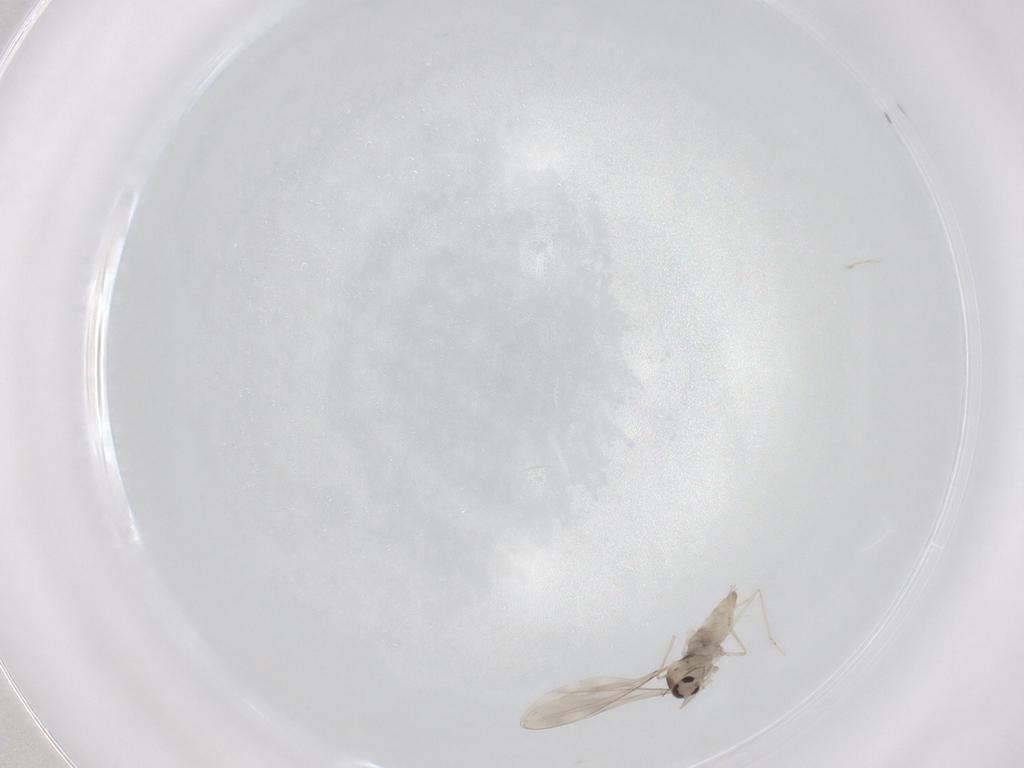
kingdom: Animalia
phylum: Arthropoda
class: Insecta
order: Diptera
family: Cecidomyiidae
